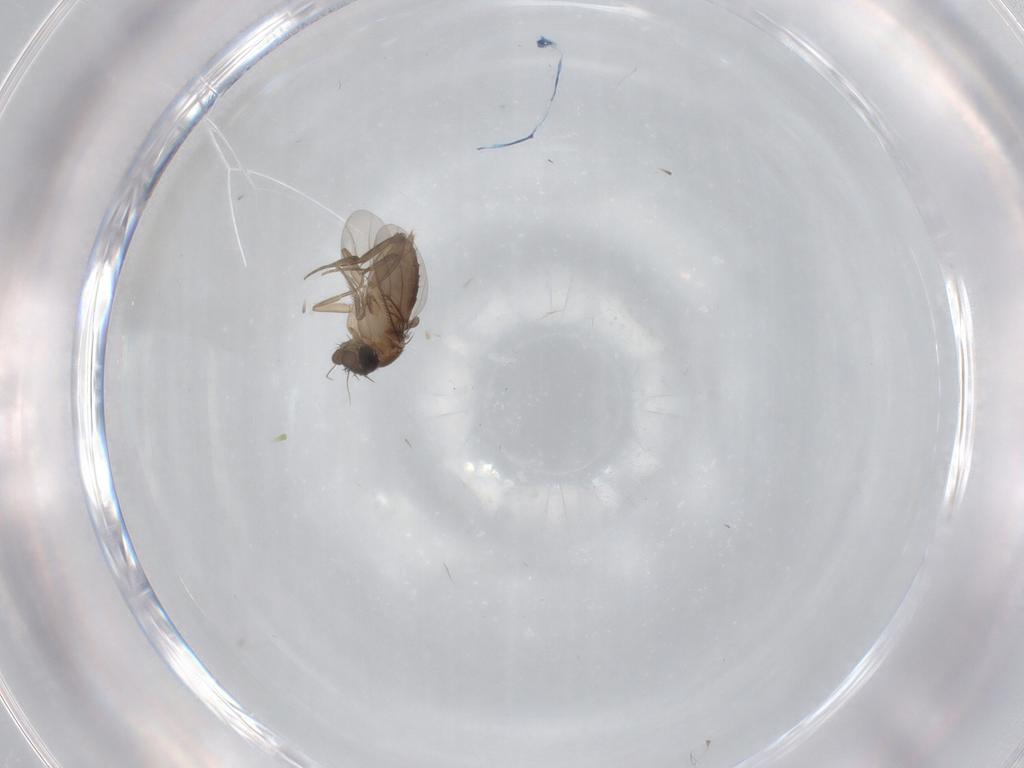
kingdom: Animalia
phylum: Arthropoda
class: Insecta
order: Diptera
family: Phoridae
